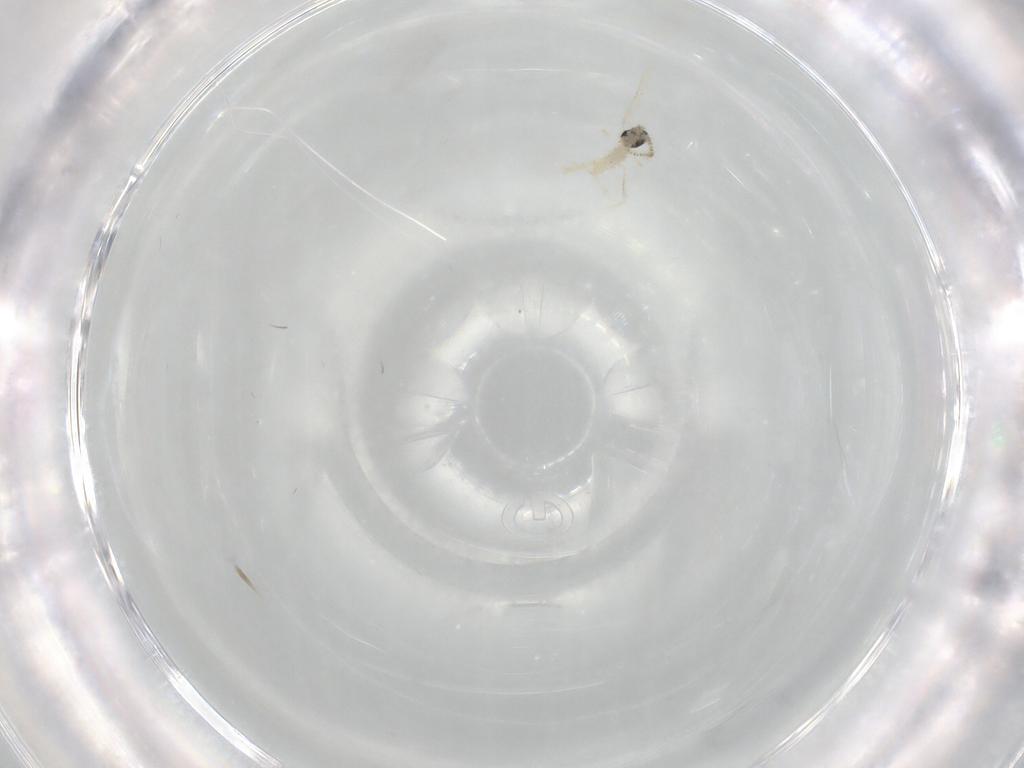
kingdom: Animalia
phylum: Arthropoda
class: Insecta
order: Diptera
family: Cecidomyiidae
